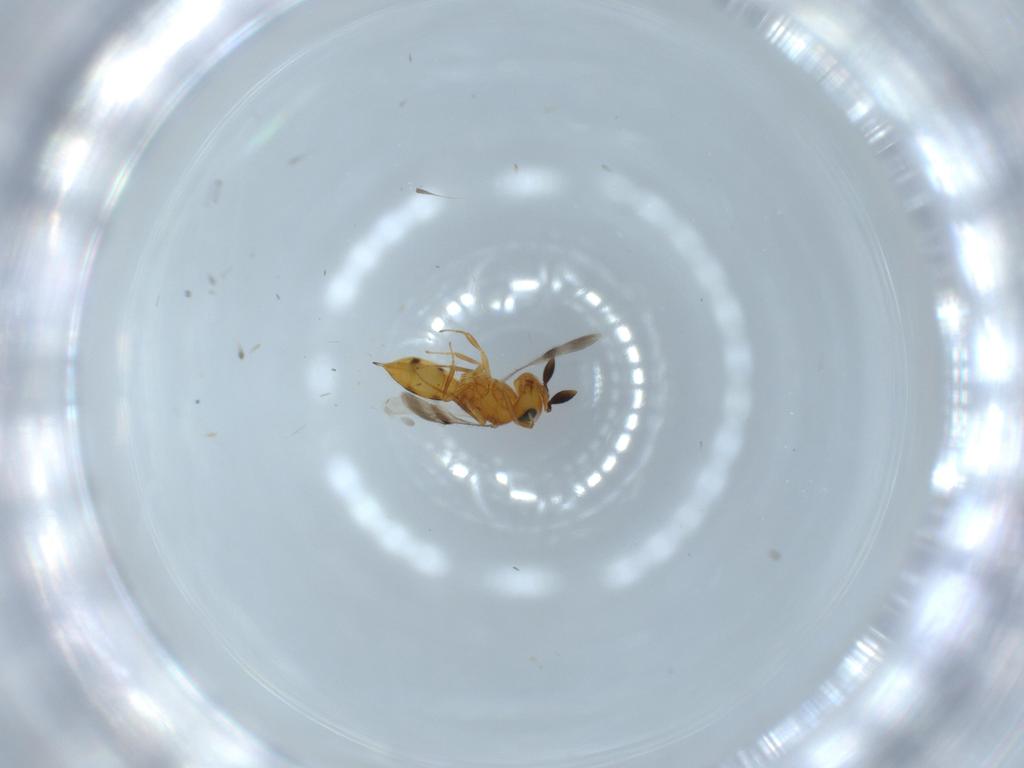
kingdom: Animalia
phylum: Arthropoda
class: Insecta
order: Hymenoptera
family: Scelionidae
